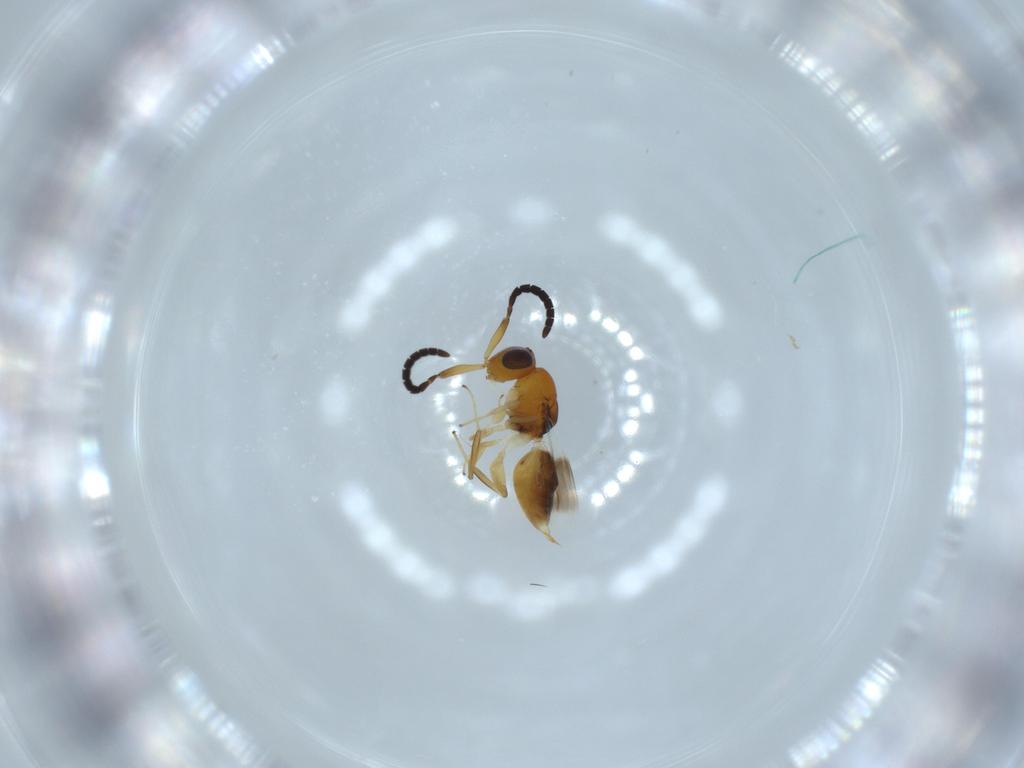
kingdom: Animalia
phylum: Arthropoda
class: Insecta
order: Hymenoptera
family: Megaspilidae
